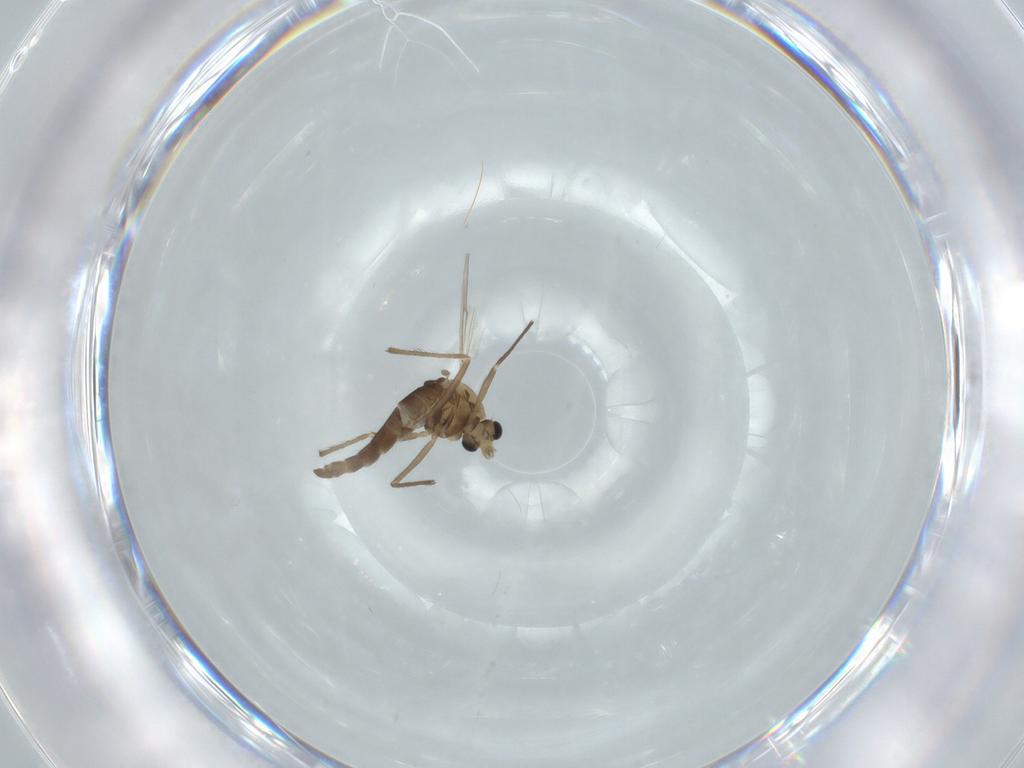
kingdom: Animalia
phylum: Arthropoda
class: Insecta
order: Diptera
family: Chironomidae
